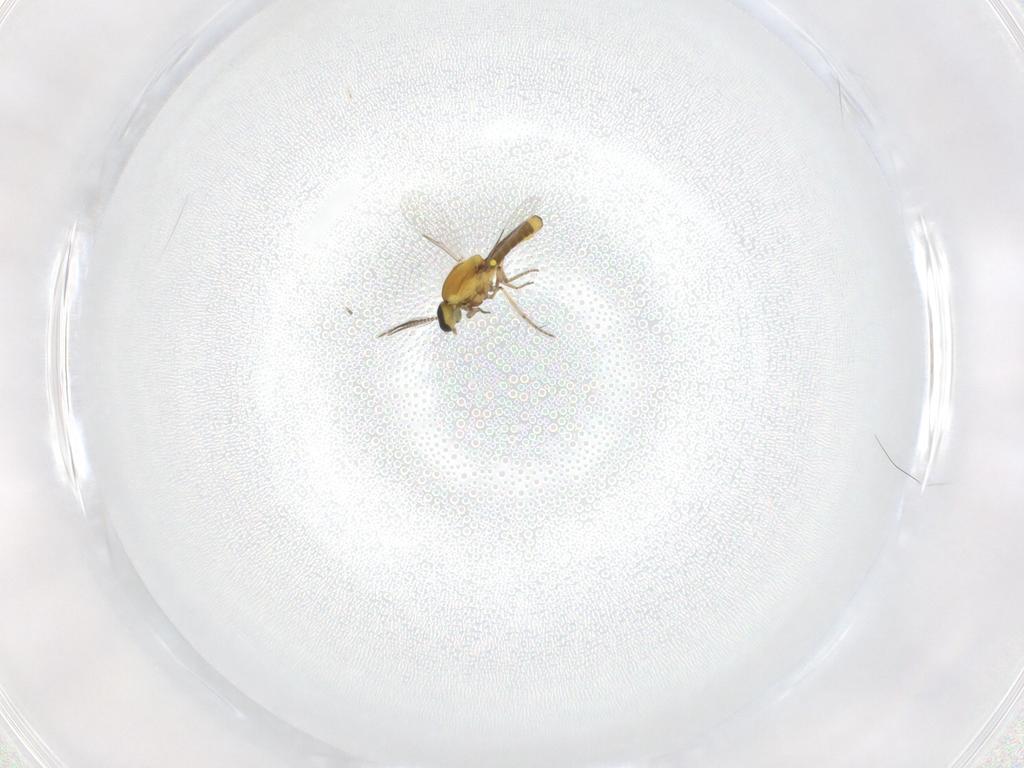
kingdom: Animalia
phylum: Arthropoda
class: Insecta
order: Diptera
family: Ceratopogonidae
